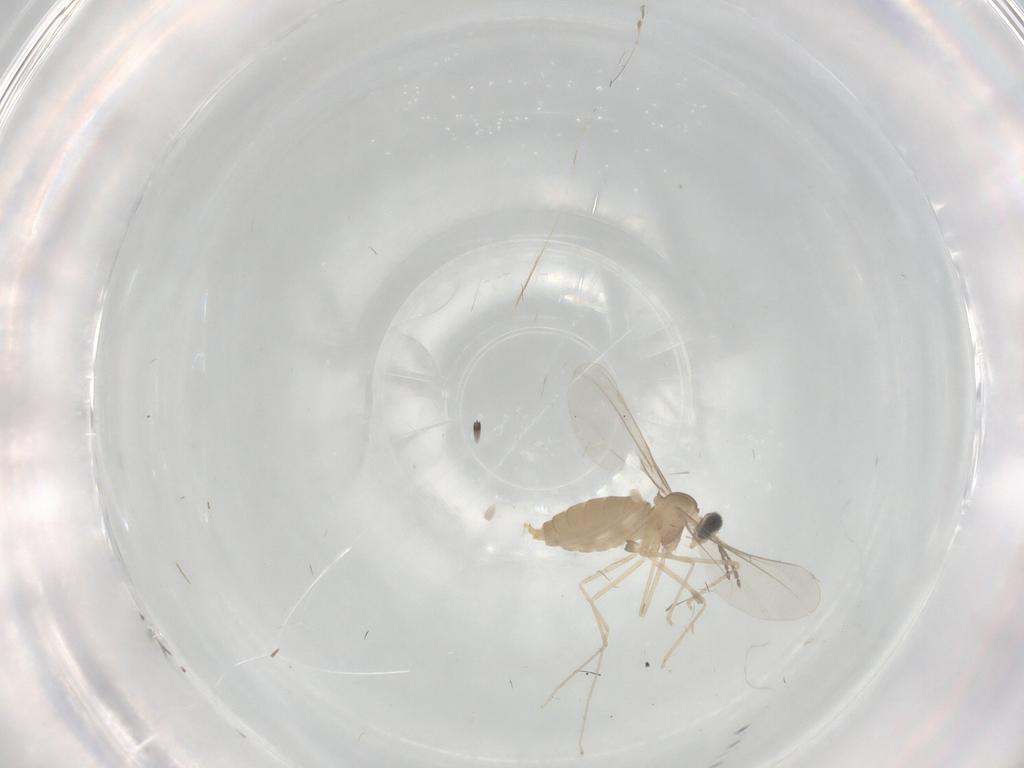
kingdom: Animalia
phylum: Arthropoda
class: Insecta
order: Diptera
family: Cecidomyiidae
